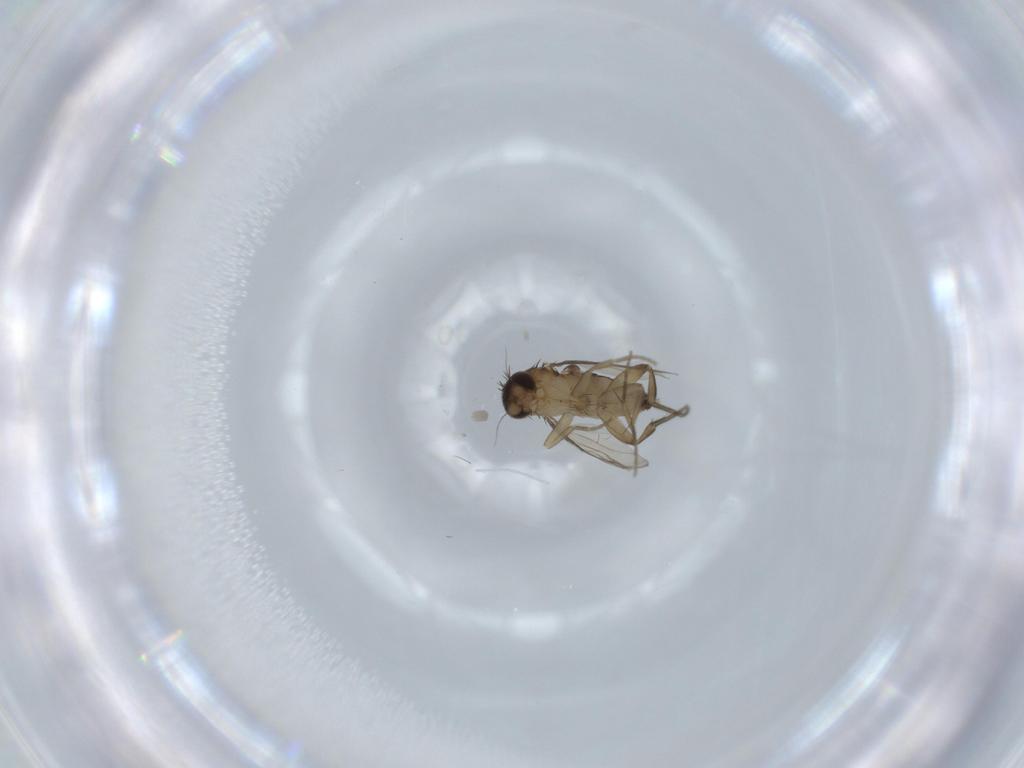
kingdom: Animalia
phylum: Arthropoda
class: Insecta
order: Diptera
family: Phoridae
